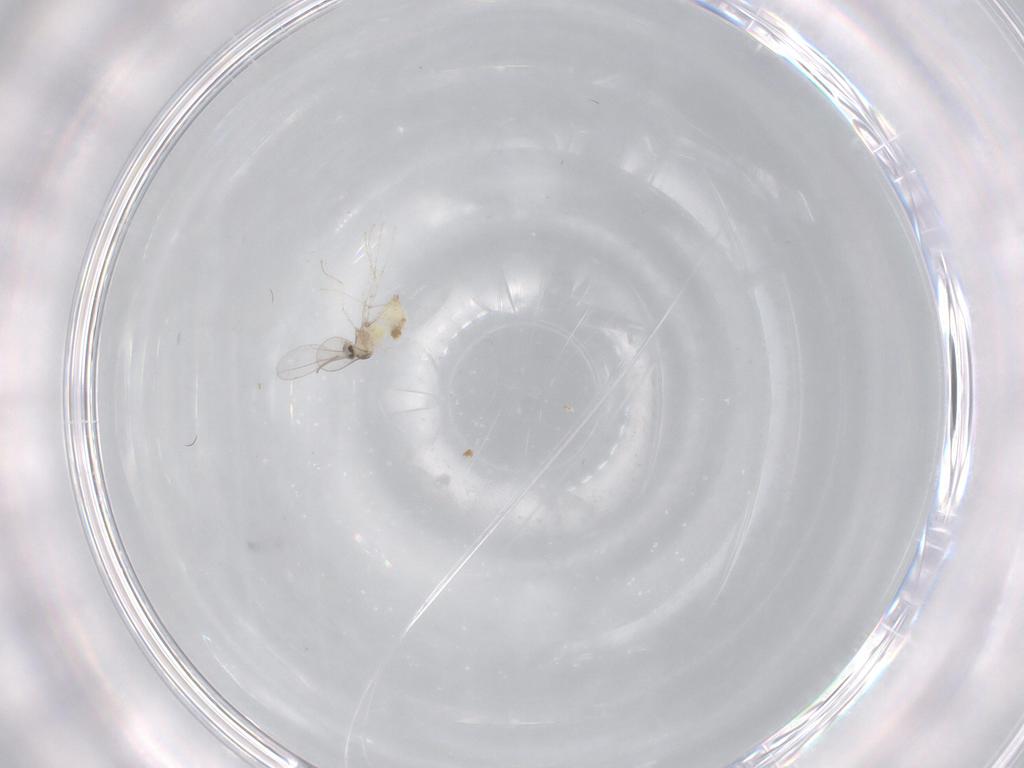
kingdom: Animalia
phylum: Arthropoda
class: Insecta
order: Diptera
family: Cecidomyiidae
